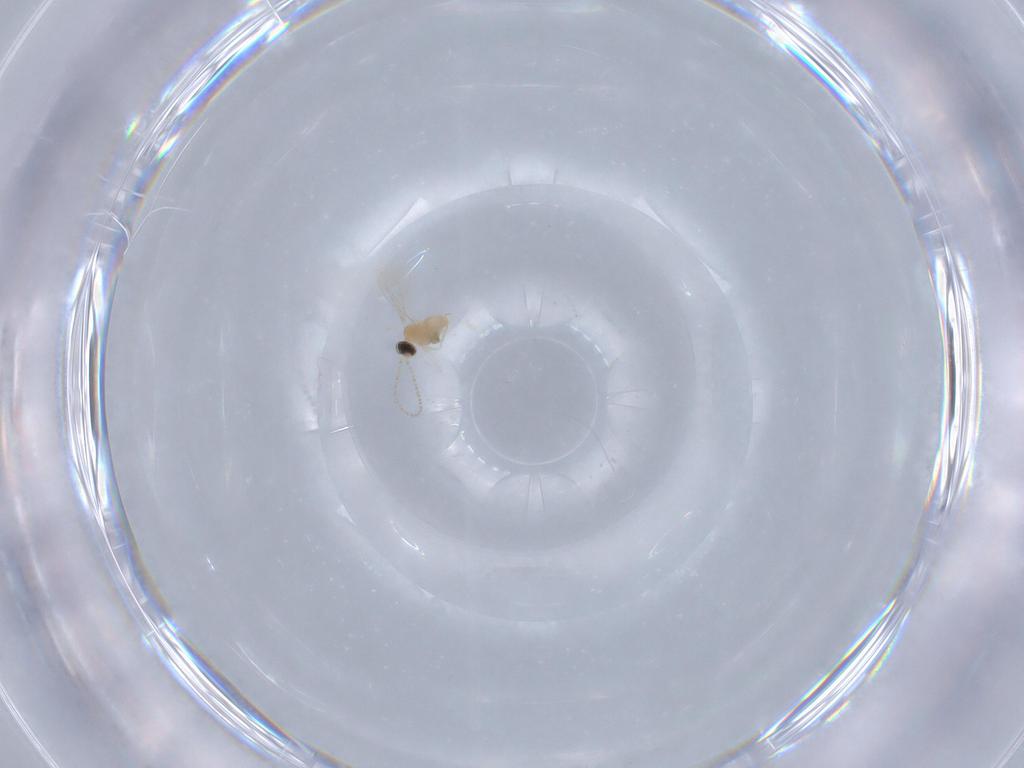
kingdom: Animalia
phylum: Arthropoda
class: Insecta
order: Diptera
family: Cecidomyiidae
